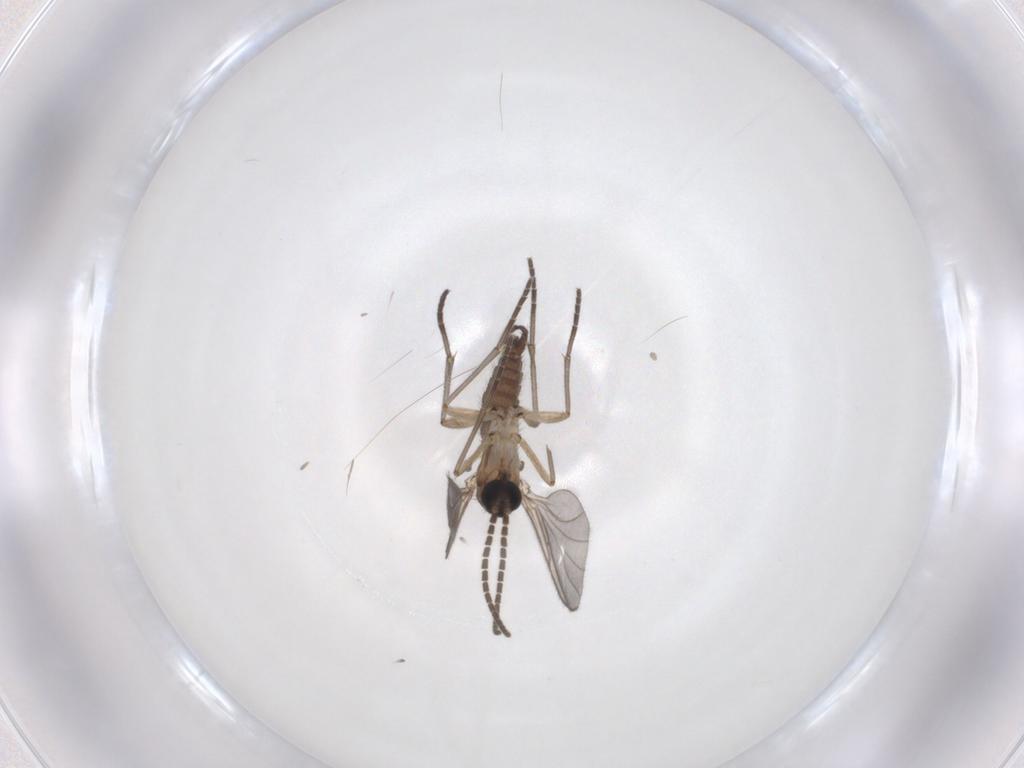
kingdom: Animalia
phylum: Arthropoda
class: Insecta
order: Diptera
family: Sciaridae
